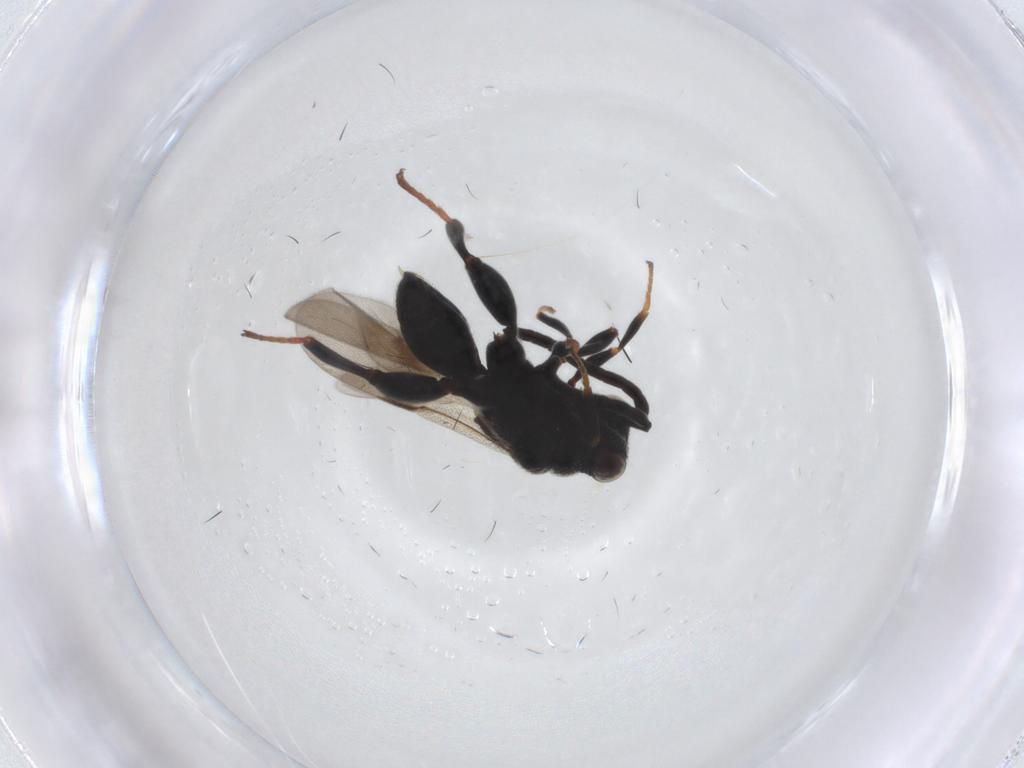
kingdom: Animalia
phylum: Arthropoda
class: Insecta
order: Hymenoptera
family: Chalcididae
